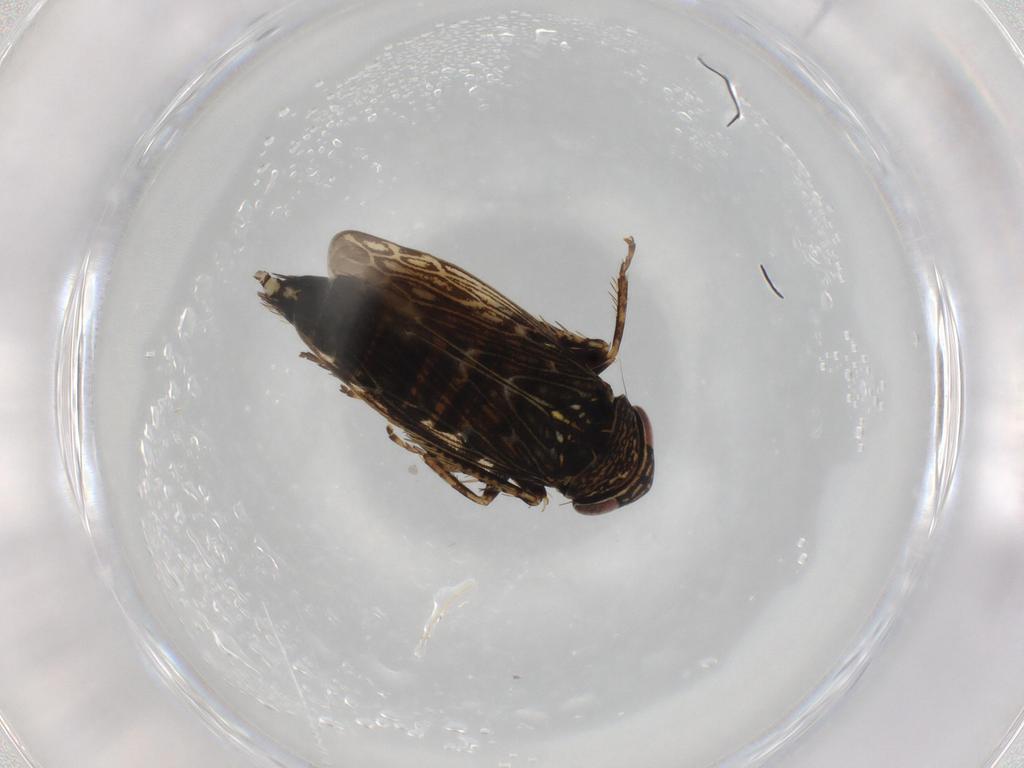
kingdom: Animalia
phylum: Arthropoda
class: Insecta
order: Hemiptera
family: Cicadellidae
